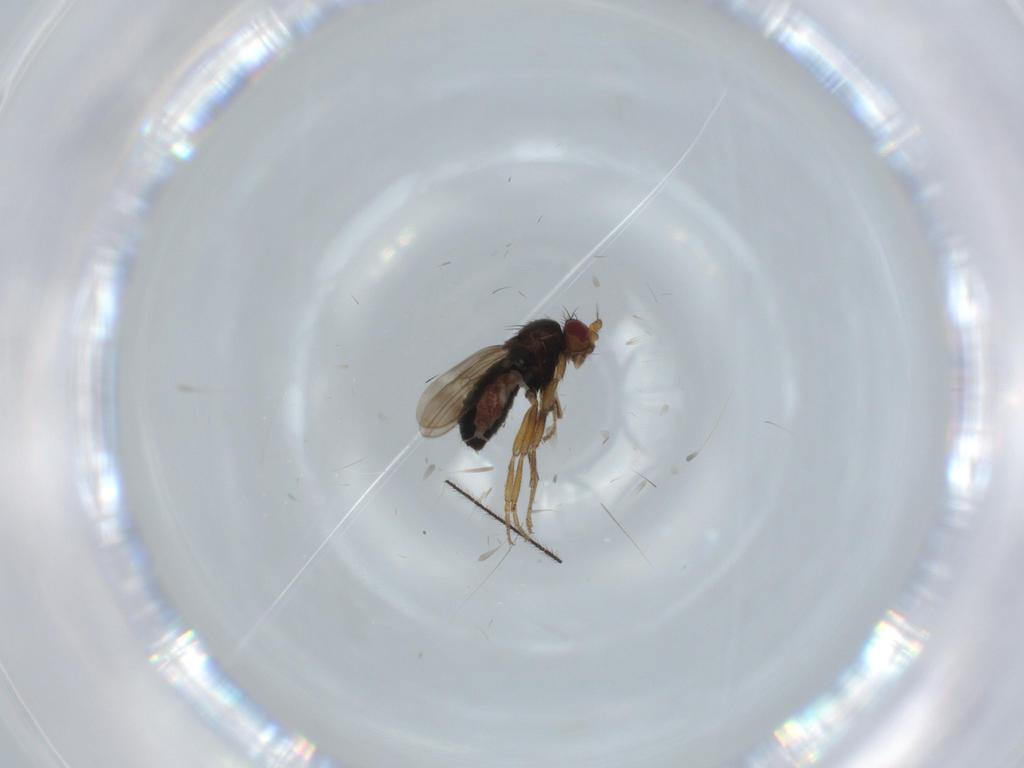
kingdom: Animalia
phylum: Arthropoda
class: Insecta
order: Diptera
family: Sphaeroceridae
